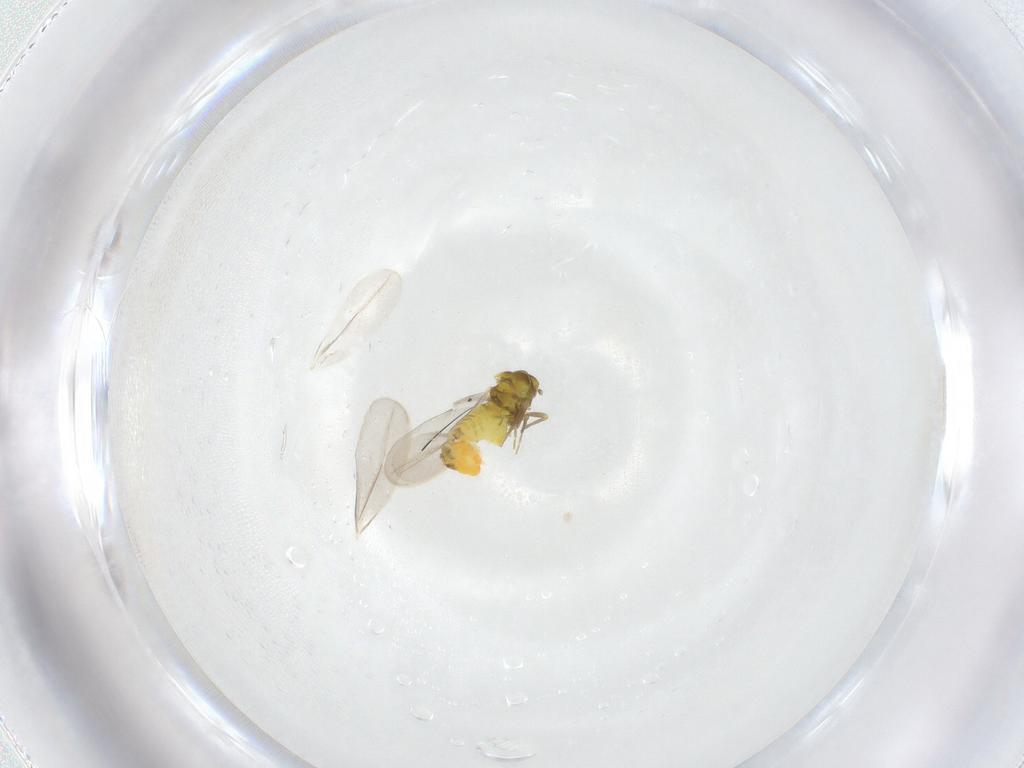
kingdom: Animalia
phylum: Arthropoda
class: Insecta
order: Hemiptera
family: Aleyrodidae
